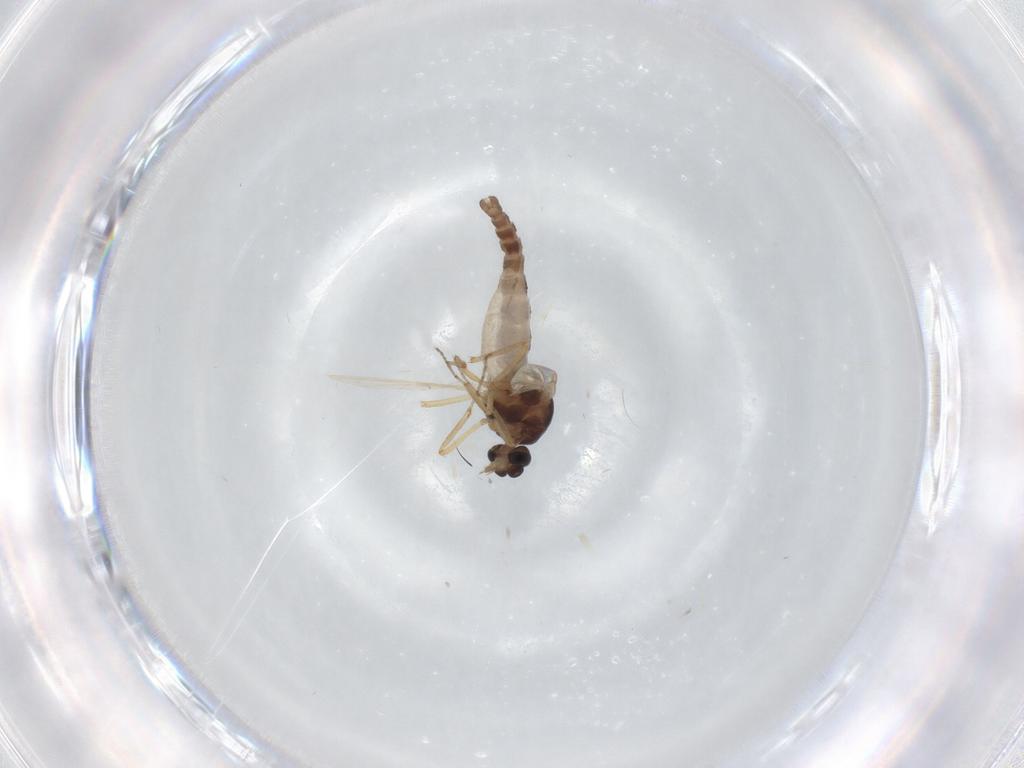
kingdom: Animalia
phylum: Arthropoda
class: Insecta
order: Diptera
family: Ceratopogonidae
